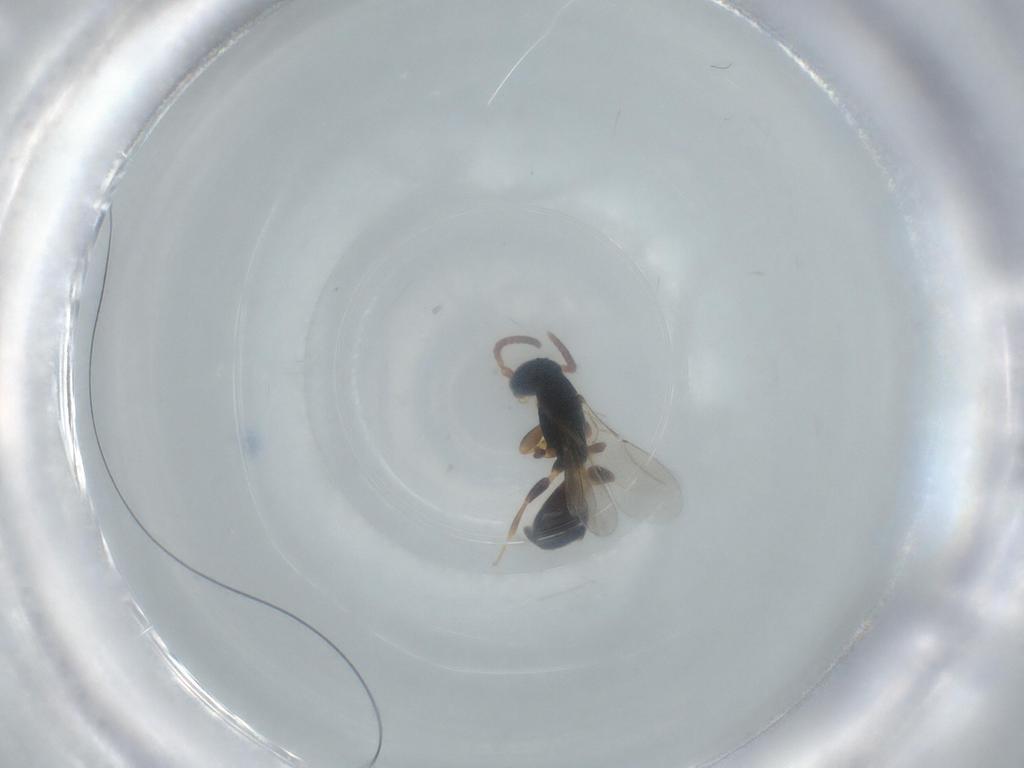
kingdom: Animalia
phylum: Arthropoda
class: Insecta
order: Hymenoptera
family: Bethylidae
